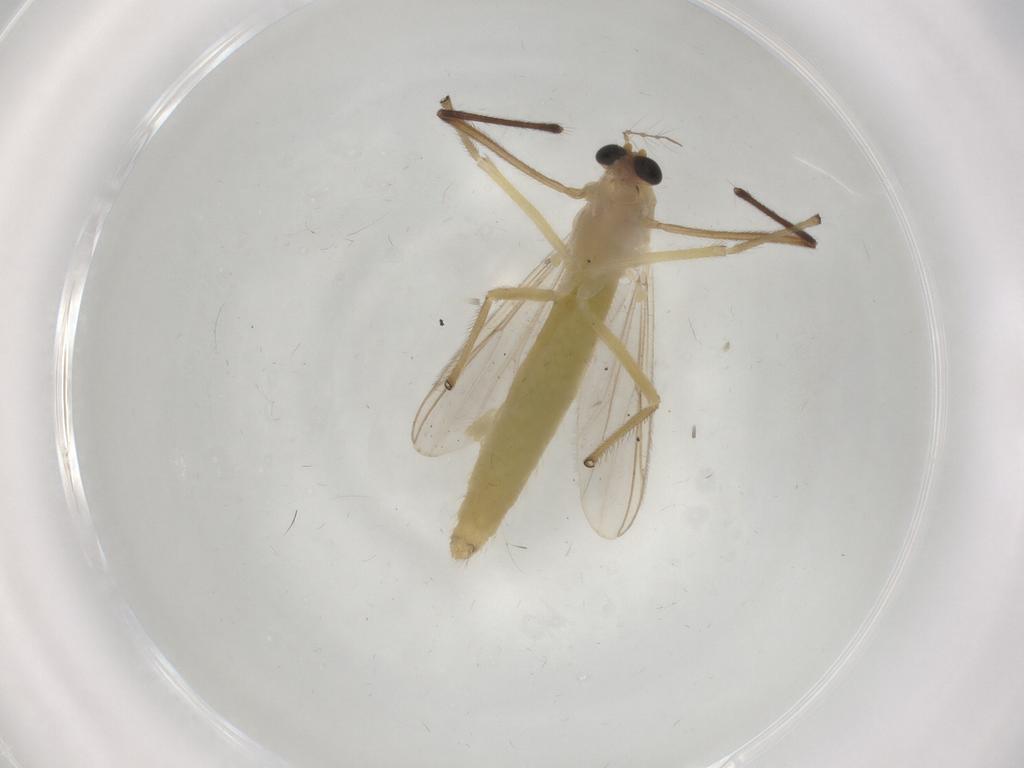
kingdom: Animalia
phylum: Arthropoda
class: Insecta
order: Diptera
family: Chironomidae
